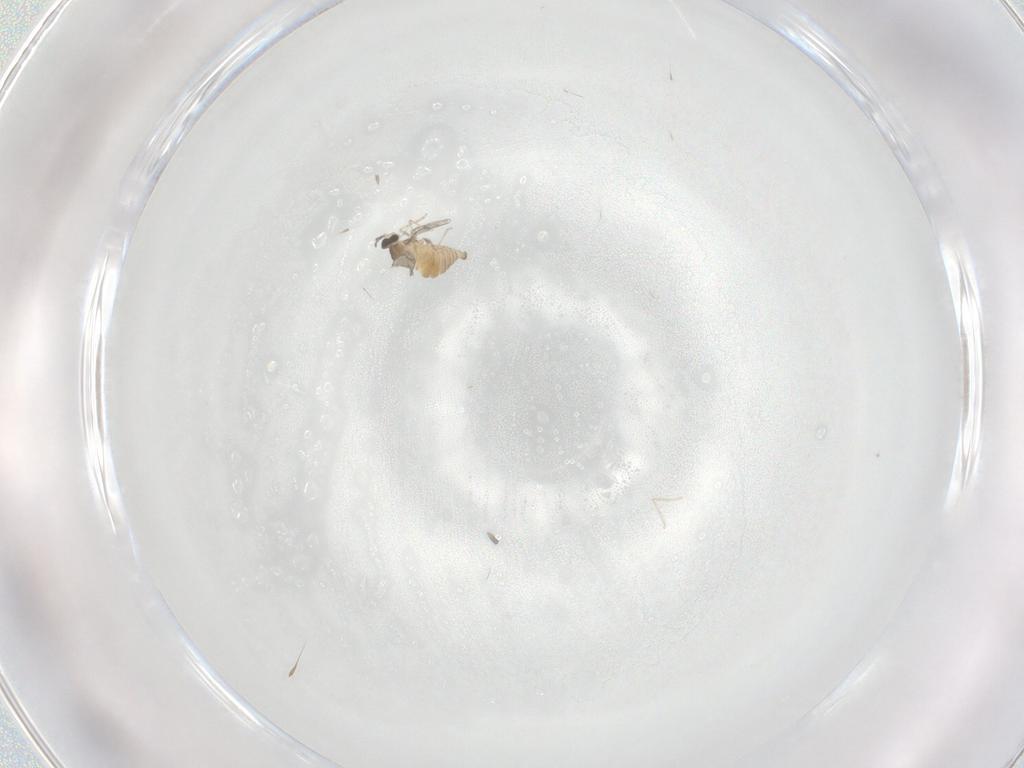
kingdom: Animalia
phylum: Arthropoda
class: Insecta
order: Diptera
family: Cecidomyiidae
